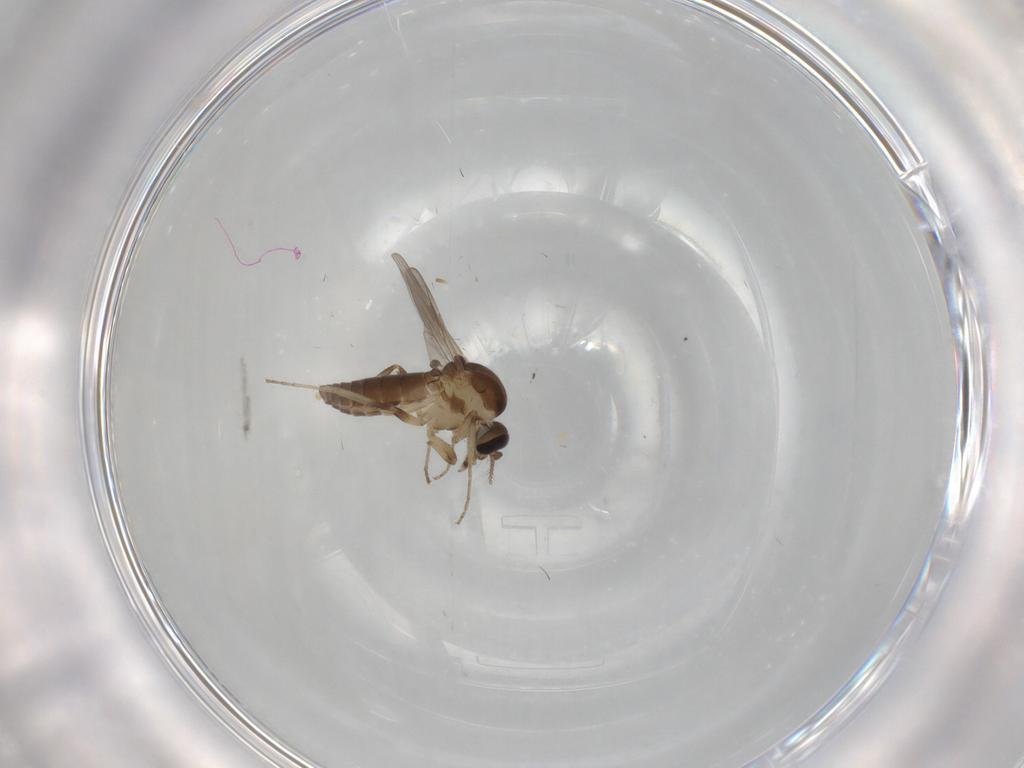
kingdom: Animalia
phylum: Arthropoda
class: Insecta
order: Diptera
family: Ceratopogonidae
